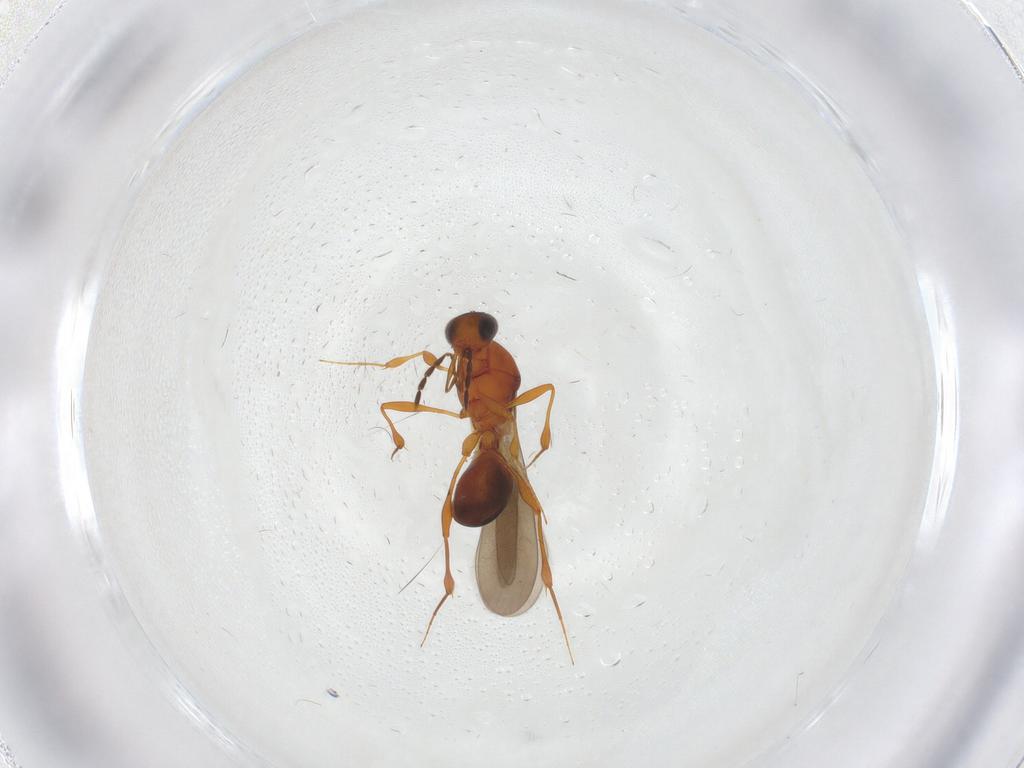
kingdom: Animalia
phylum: Arthropoda
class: Insecta
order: Hymenoptera
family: Platygastridae
